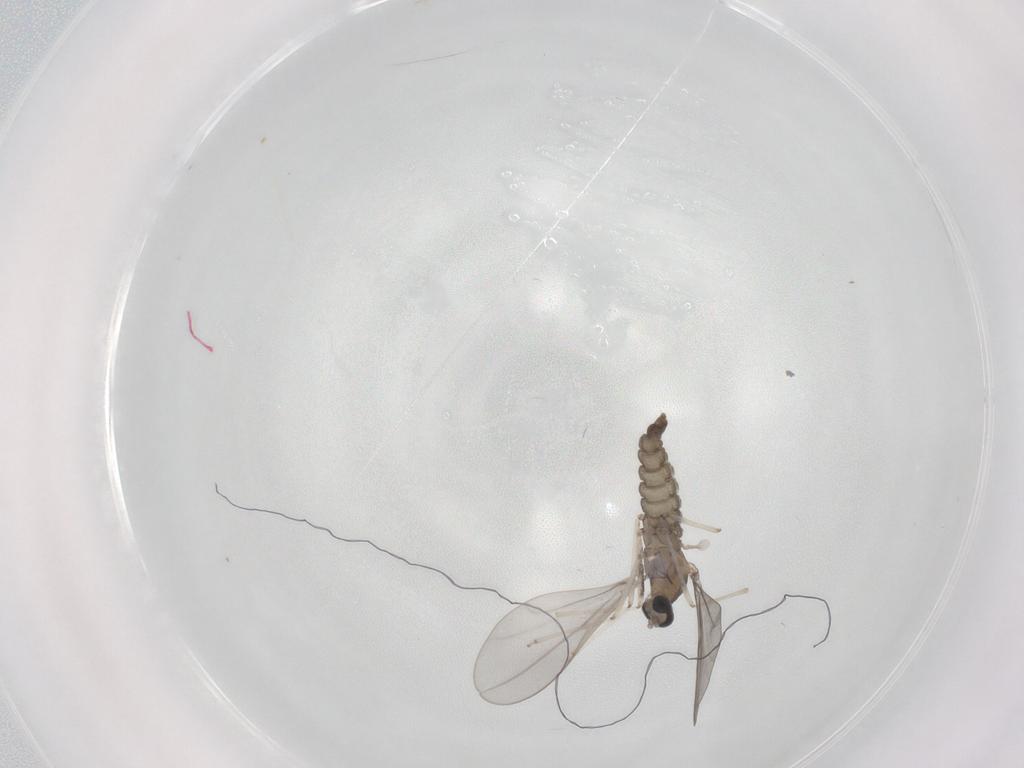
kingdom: Animalia
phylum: Arthropoda
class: Insecta
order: Diptera
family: Cecidomyiidae
